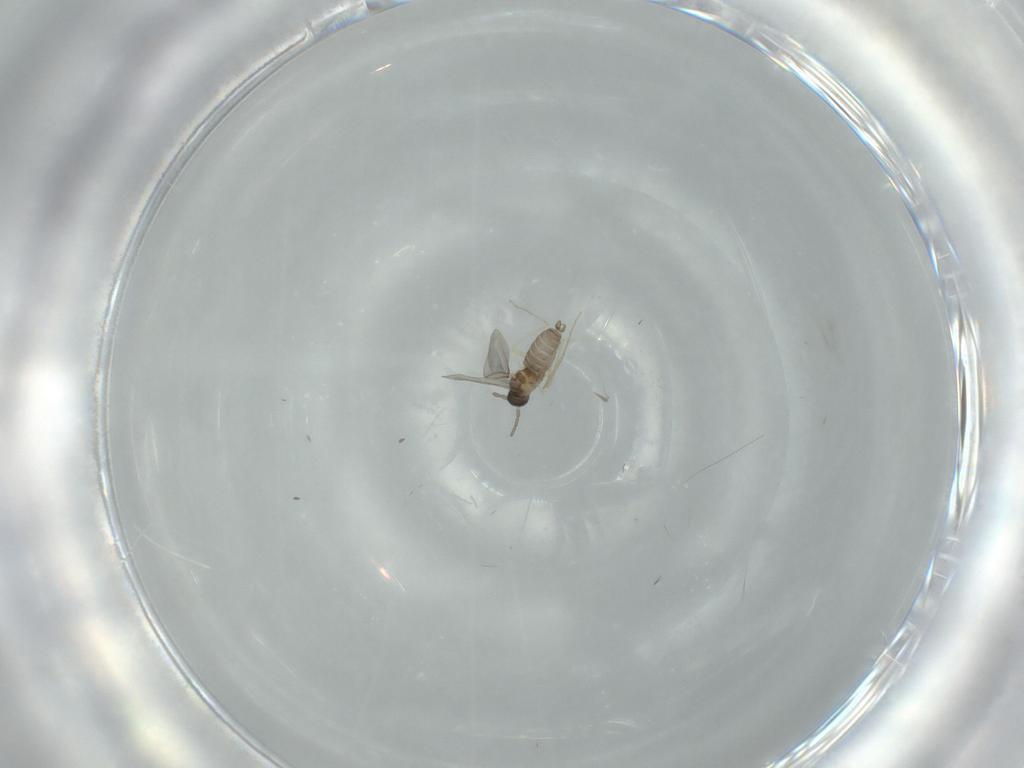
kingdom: Animalia
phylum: Arthropoda
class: Insecta
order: Diptera
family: Cecidomyiidae
